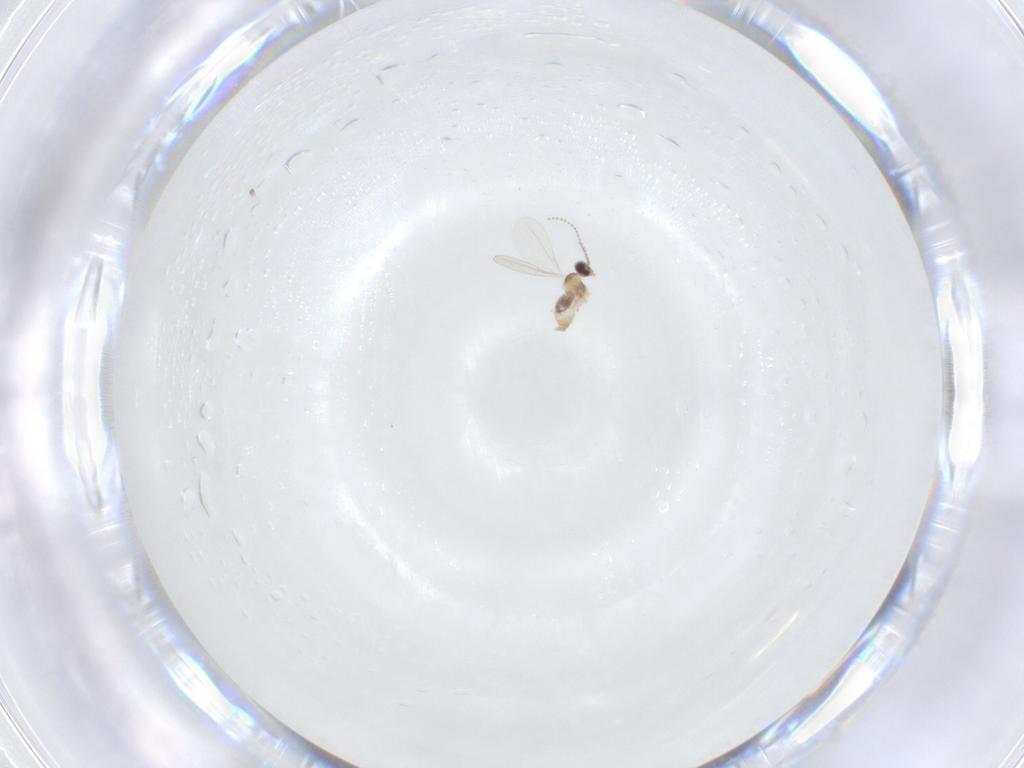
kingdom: Animalia
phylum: Arthropoda
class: Insecta
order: Diptera
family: Cecidomyiidae
